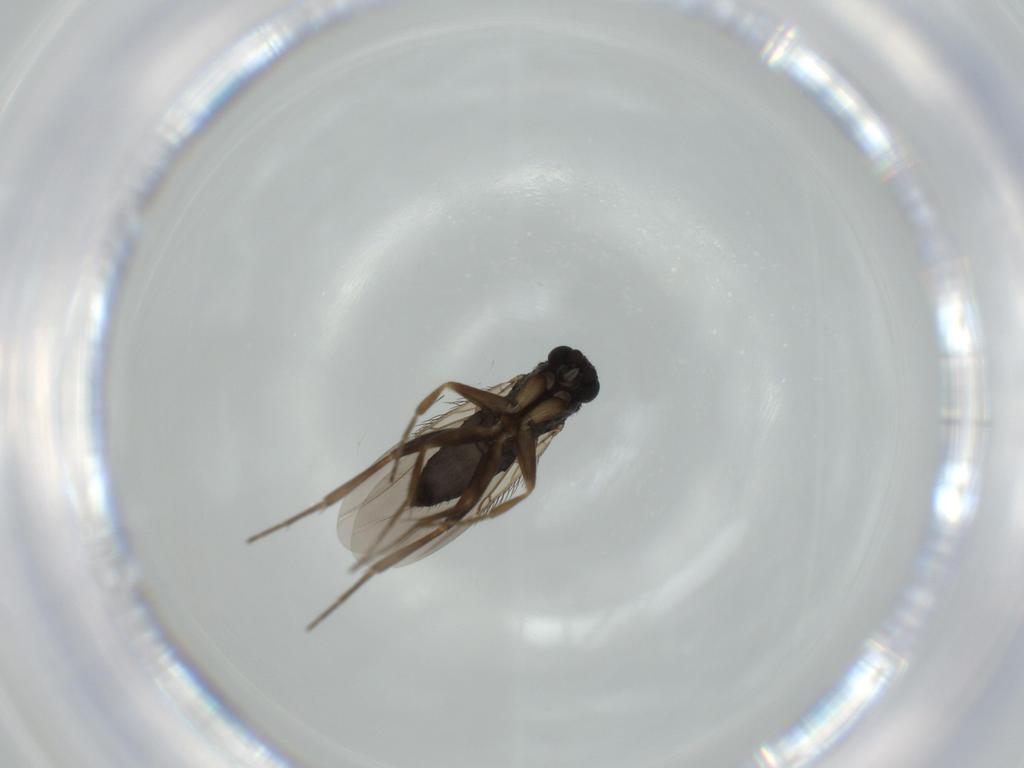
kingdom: Animalia
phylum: Arthropoda
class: Insecta
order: Diptera
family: Phoridae
